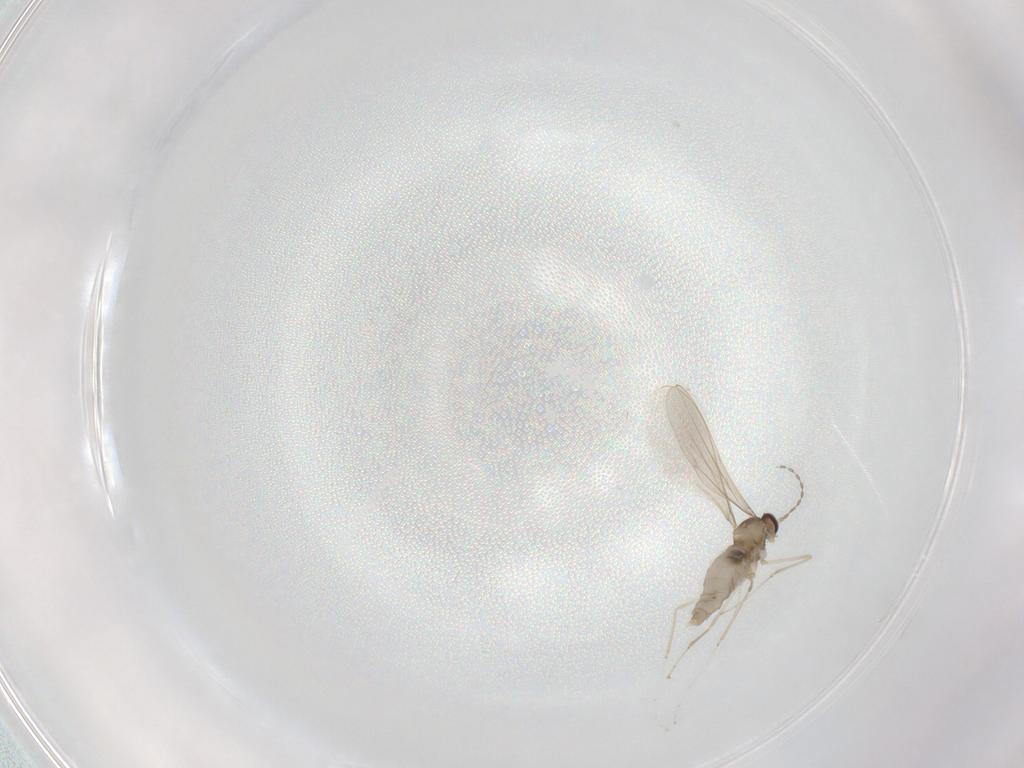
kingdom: Animalia
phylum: Arthropoda
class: Insecta
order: Diptera
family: Cecidomyiidae
